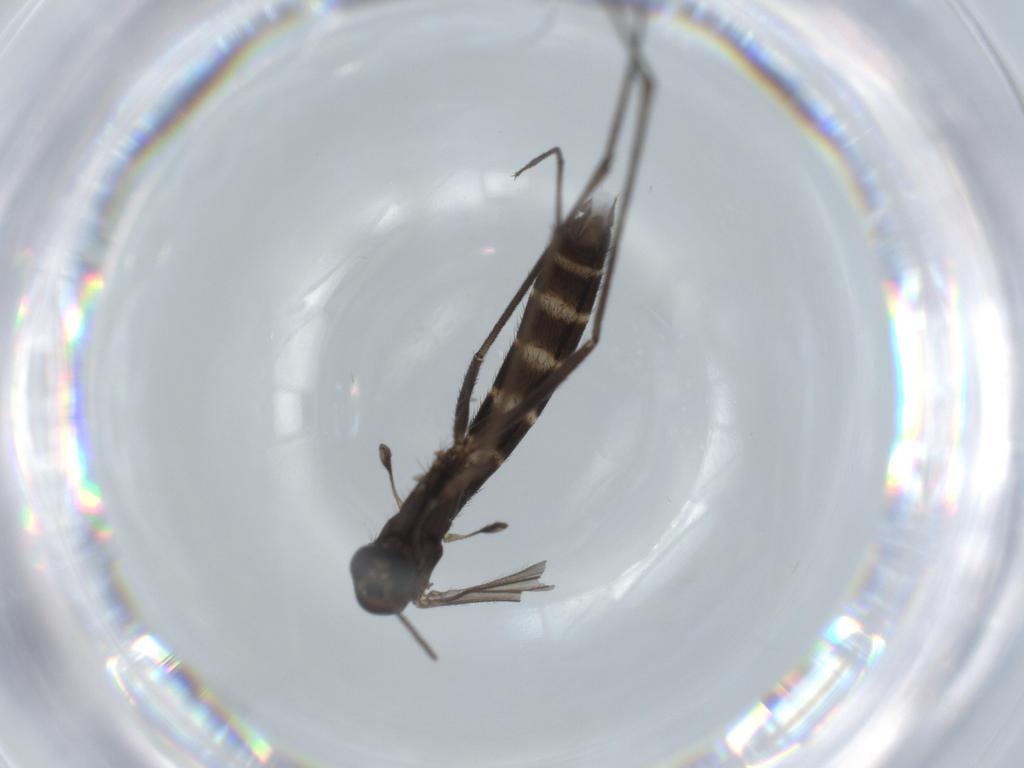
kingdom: Animalia
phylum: Arthropoda
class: Insecta
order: Diptera
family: Ditomyiidae
